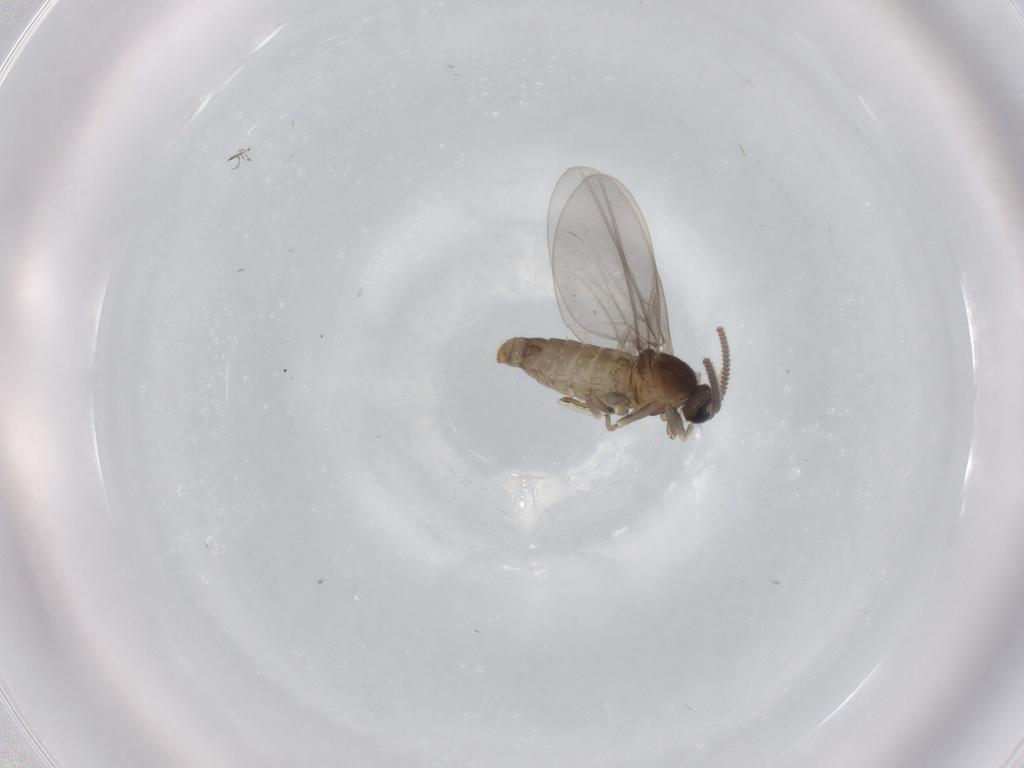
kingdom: Animalia
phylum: Arthropoda
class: Insecta
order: Diptera
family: Cecidomyiidae
